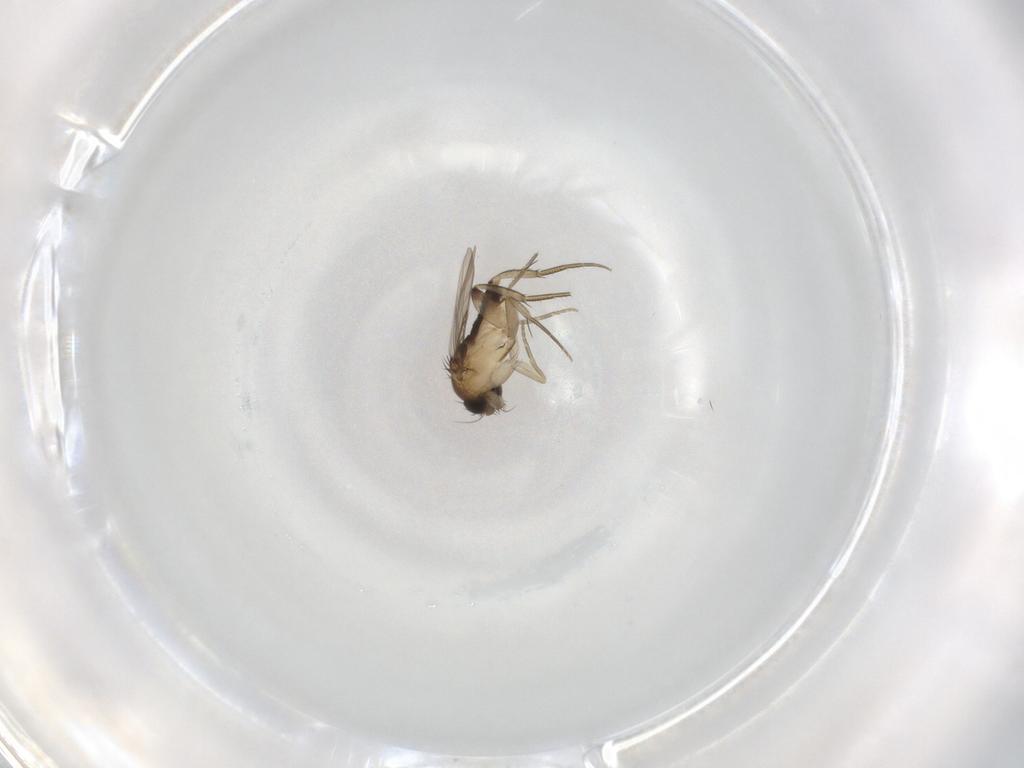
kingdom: Animalia
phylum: Arthropoda
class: Insecta
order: Diptera
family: Phoridae
